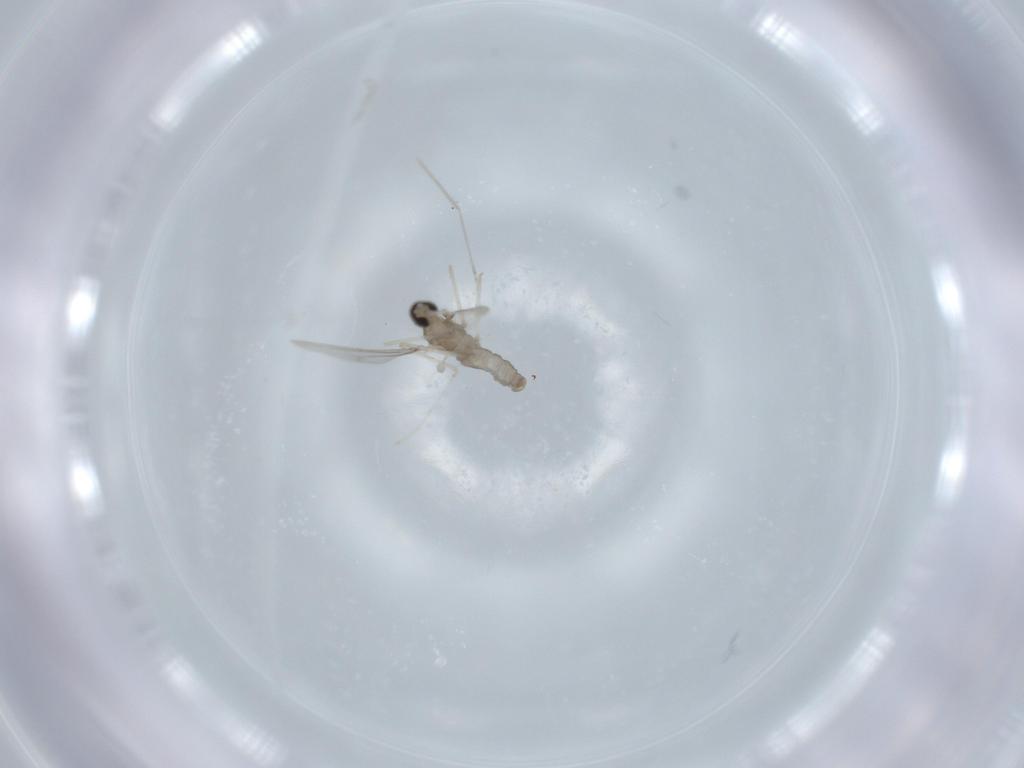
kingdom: Animalia
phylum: Arthropoda
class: Insecta
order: Diptera
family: Cecidomyiidae
